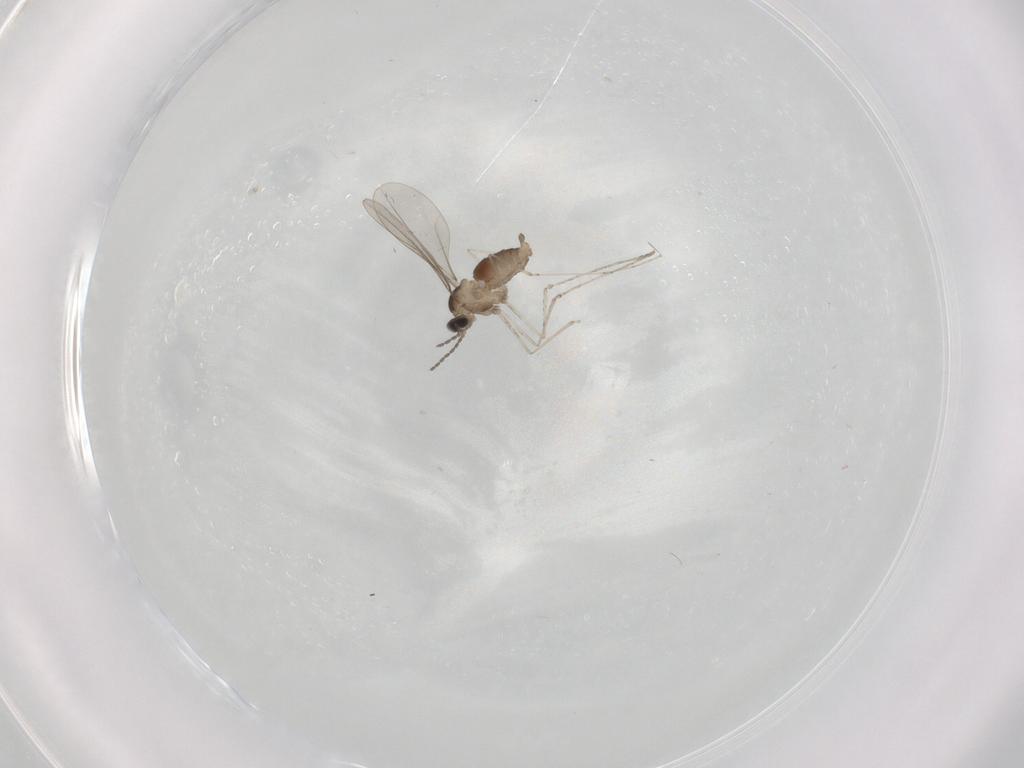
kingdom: Animalia
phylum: Arthropoda
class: Insecta
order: Diptera
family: Cecidomyiidae
